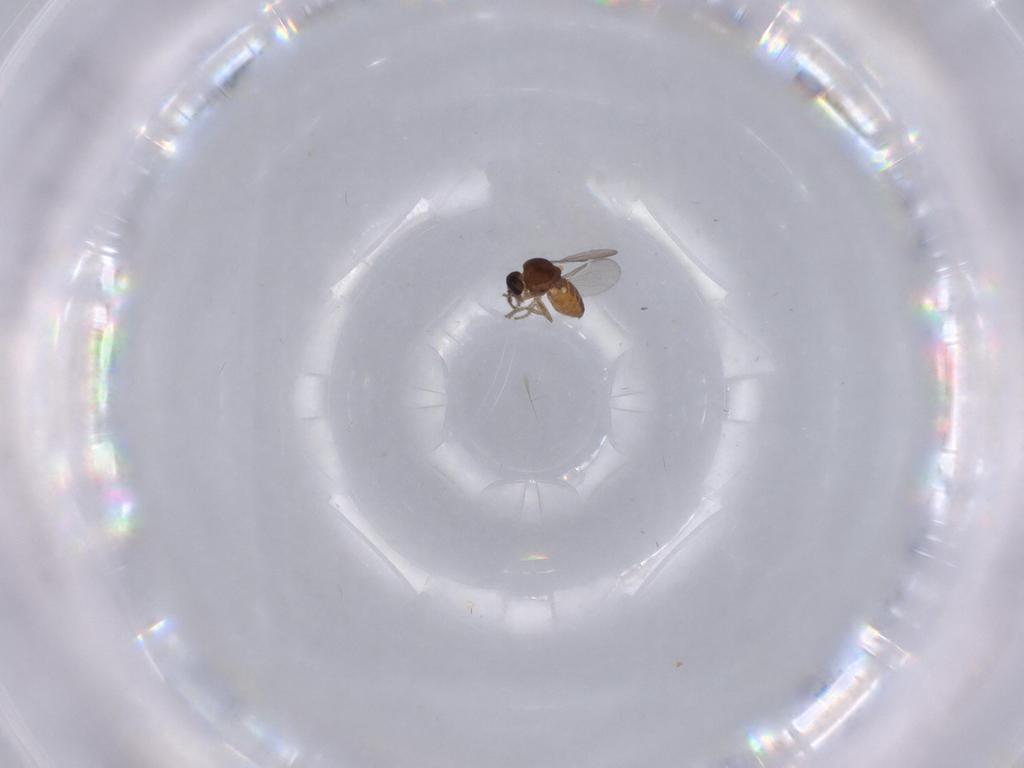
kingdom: Animalia
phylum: Arthropoda
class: Insecta
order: Diptera
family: Ceratopogonidae
